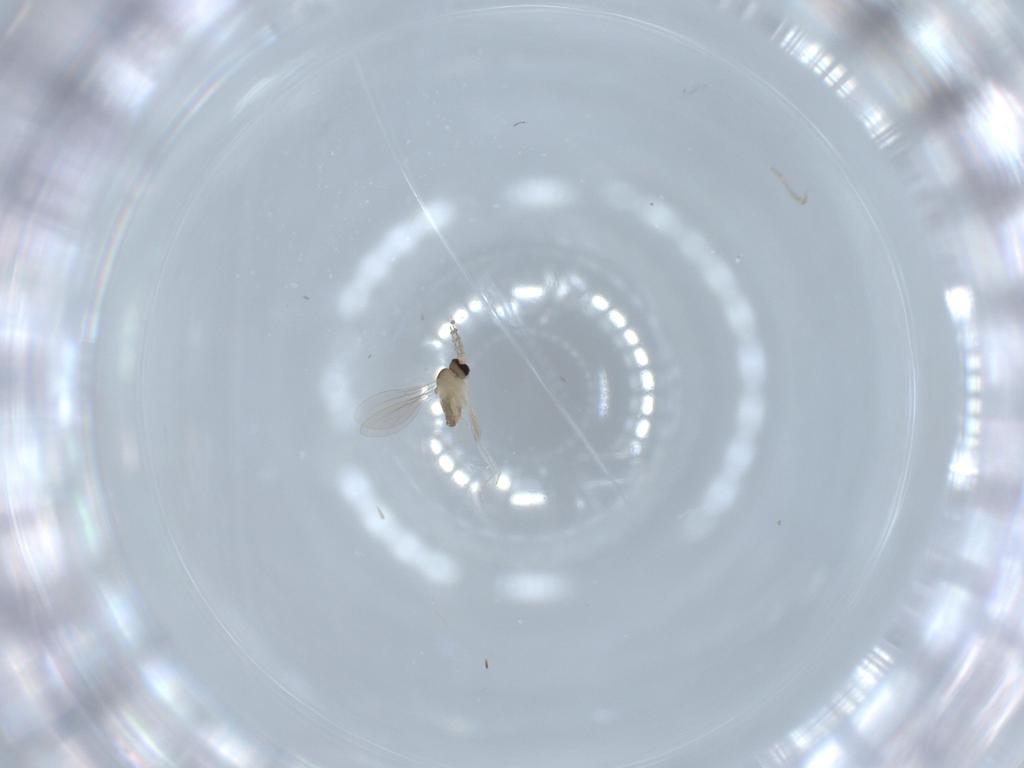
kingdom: Animalia
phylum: Arthropoda
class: Insecta
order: Diptera
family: Cecidomyiidae
